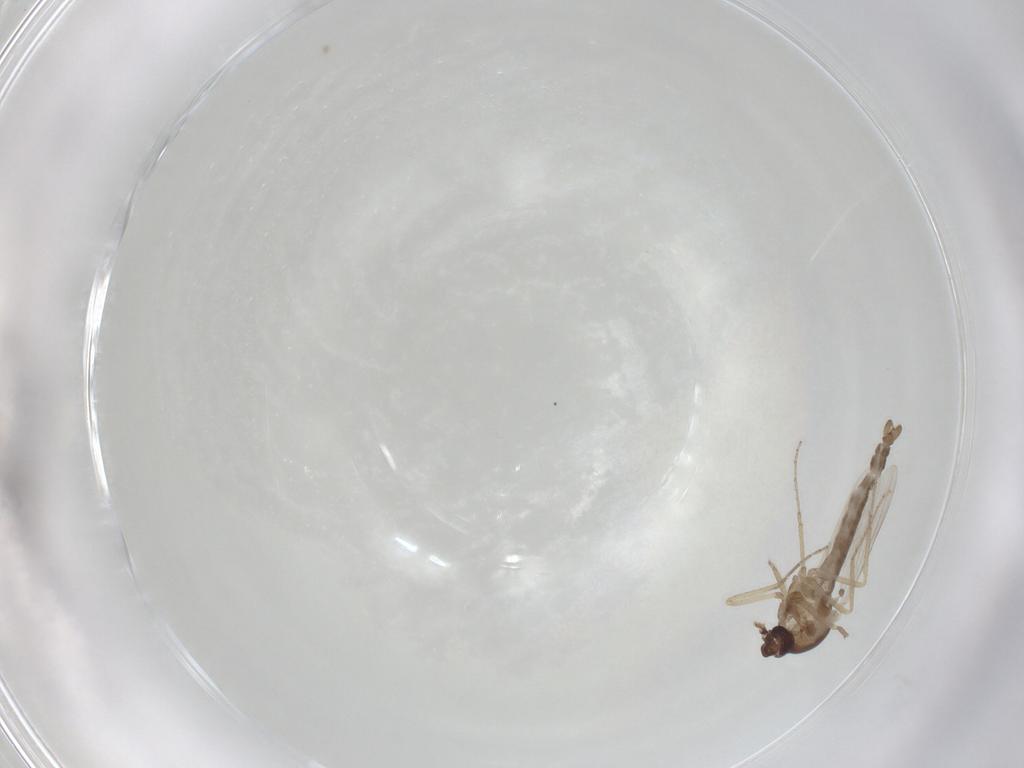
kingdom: Animalia
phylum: Arthropoda
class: Insecta
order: Diptera
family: Ceratopogonidae
